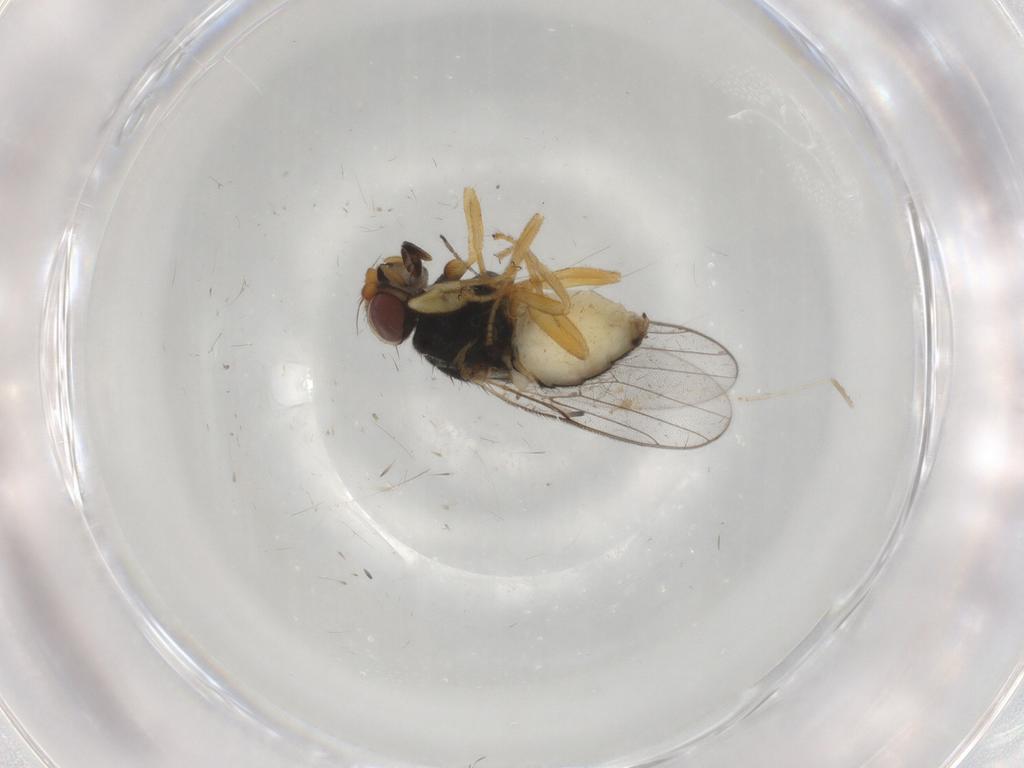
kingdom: Animalia
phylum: Arthropoda
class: Insecta
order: Diptera
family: Chloropidae
